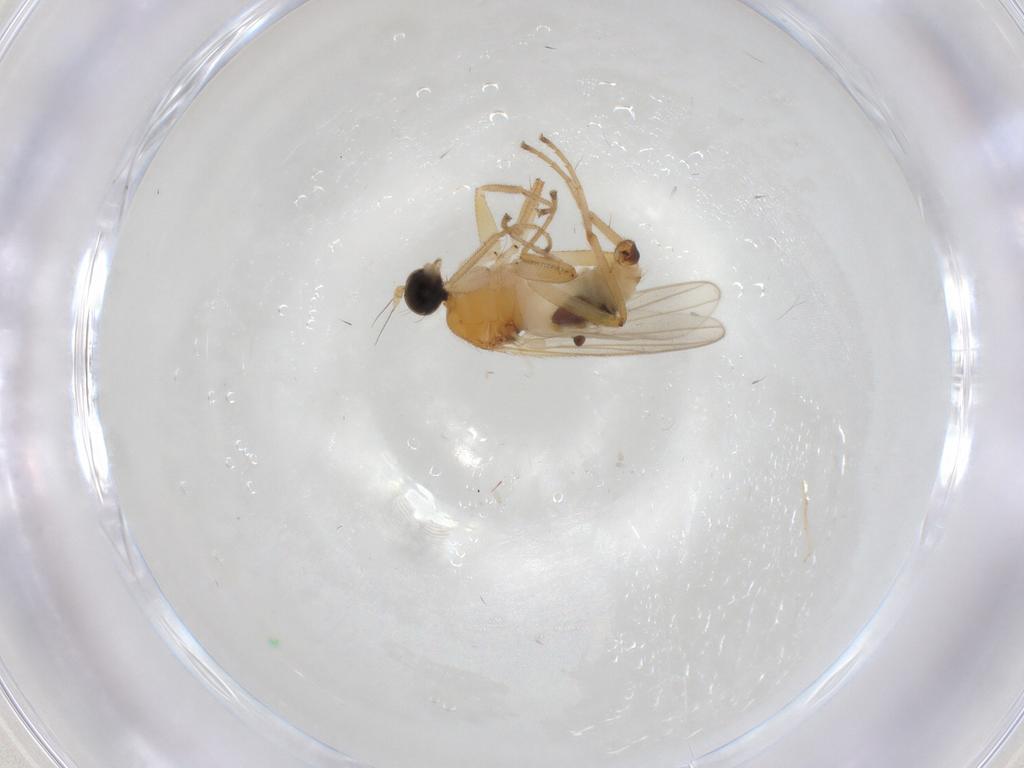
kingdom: Animalia
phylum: Arthropoda
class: Insecta
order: Diptera
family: Hybotidae
